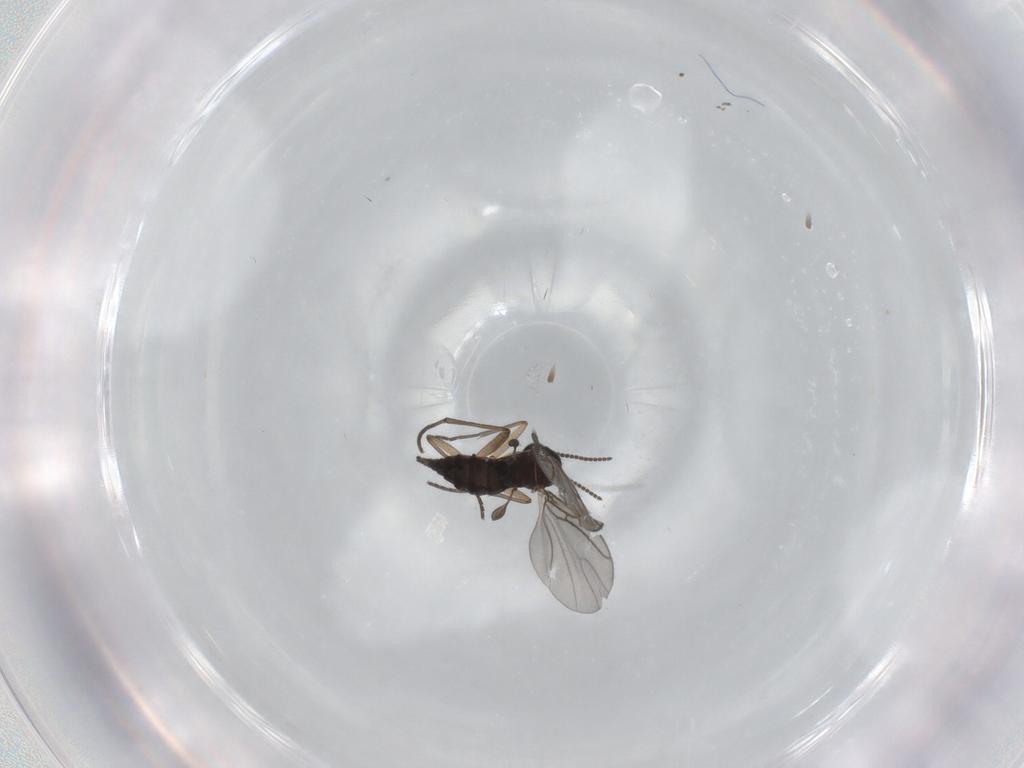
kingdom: Animalia
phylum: Arthropoda
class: Insecta
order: Diptera
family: Sciaridae
